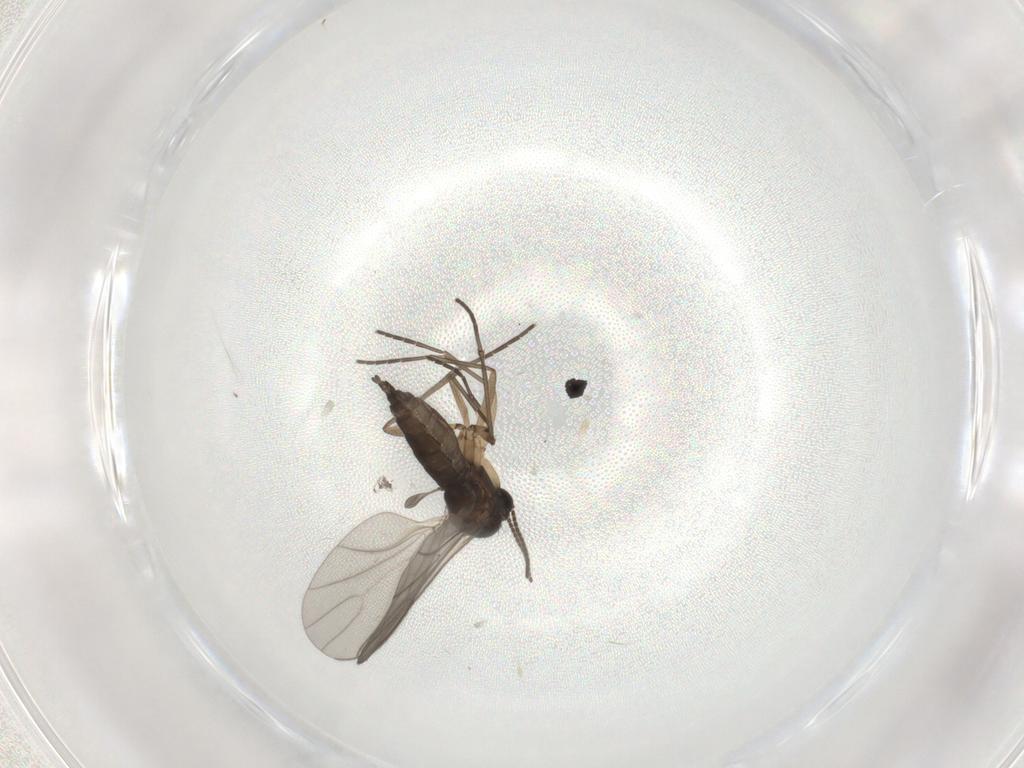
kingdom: Animalia
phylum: Arthropoda
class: Insecta
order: Diptera
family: Sciaridae
